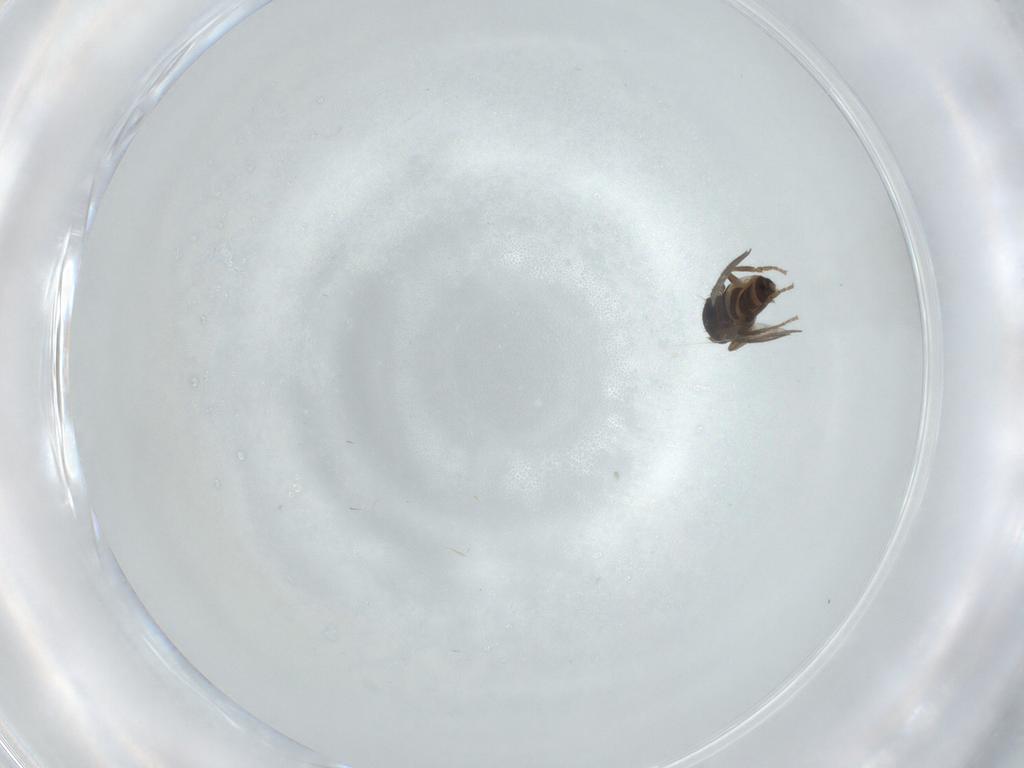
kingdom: Animalia
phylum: Arthropoda
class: Insecta
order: Diptera
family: Sphaeroceridae
